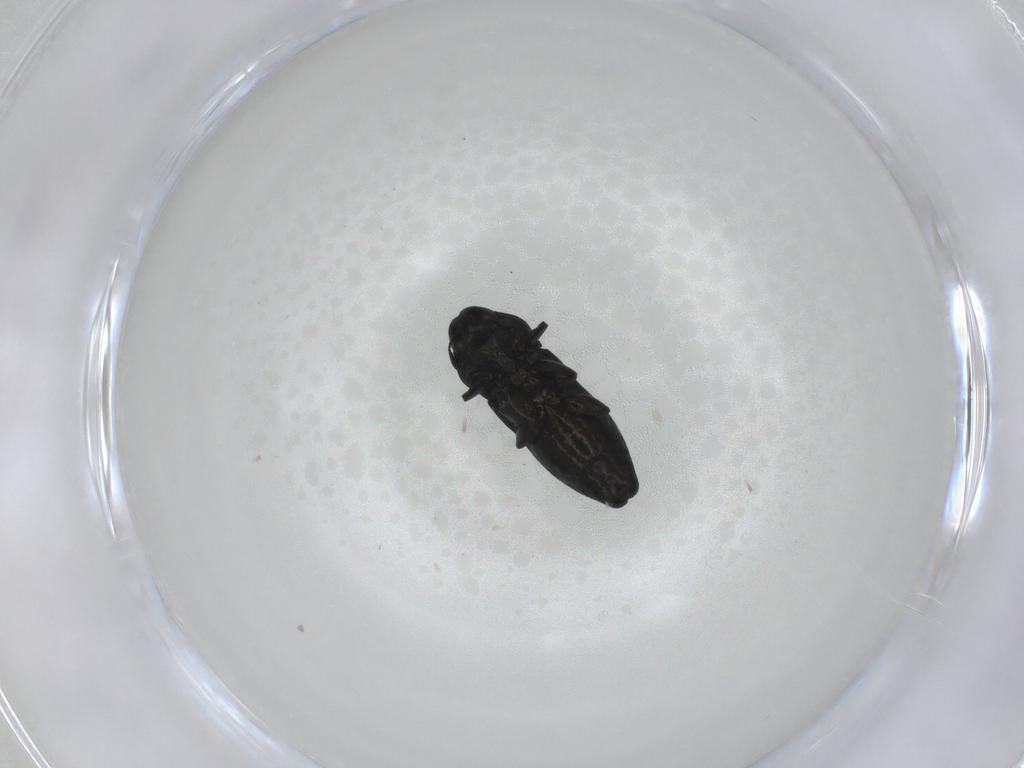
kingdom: Animalia
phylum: Arthropoda
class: Insecta
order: Coleoptera
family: Buprestidae
